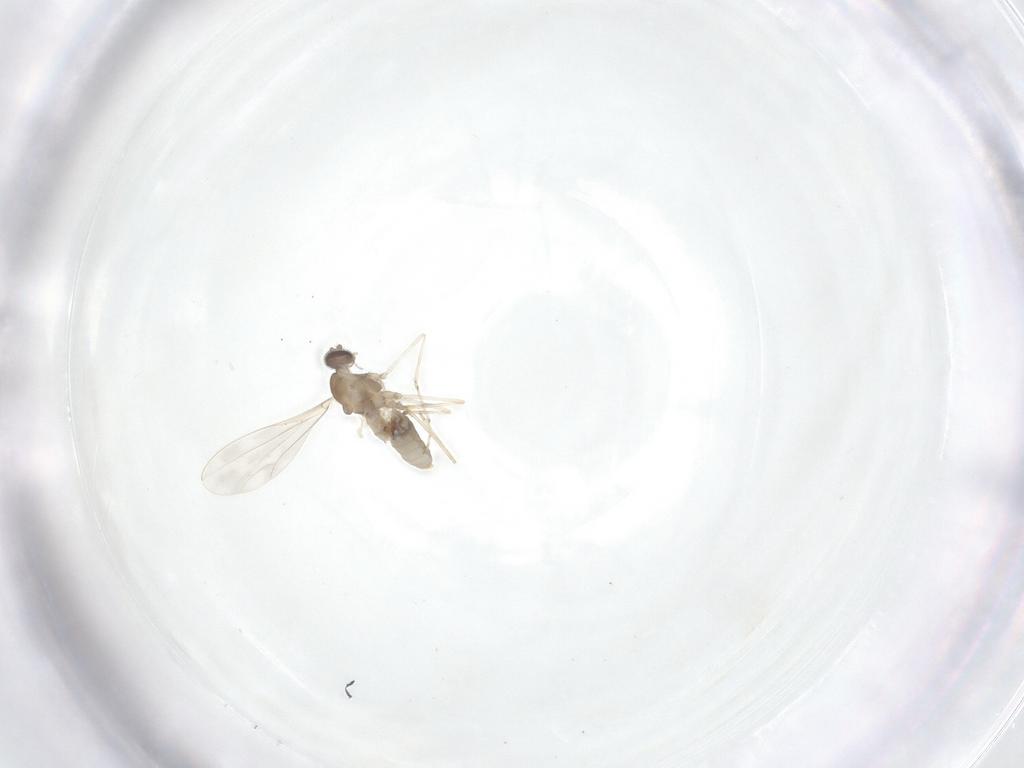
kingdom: Animalia
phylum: Arthropoda
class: Insecta
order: Diptera
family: Cecidomyiidae
